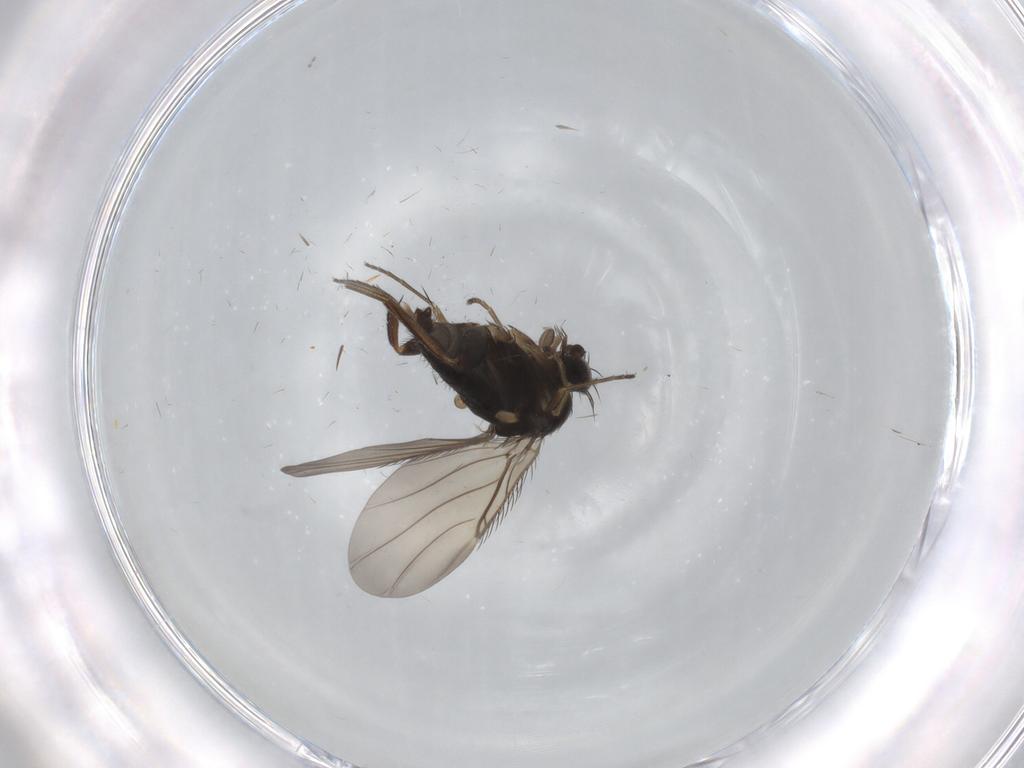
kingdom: Animalia
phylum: Arthropoda
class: Insecta
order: Diptera
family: Phoridae
